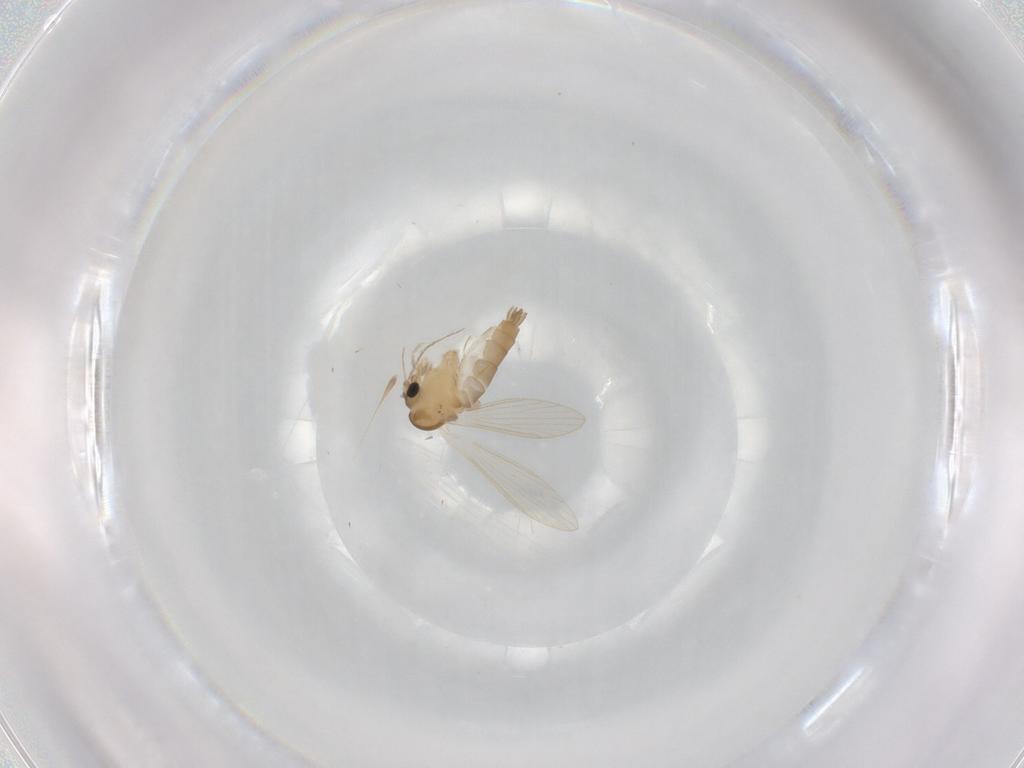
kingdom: Animalia
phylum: Arthropoda
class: Insecta
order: Diptera
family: Psychodidae
